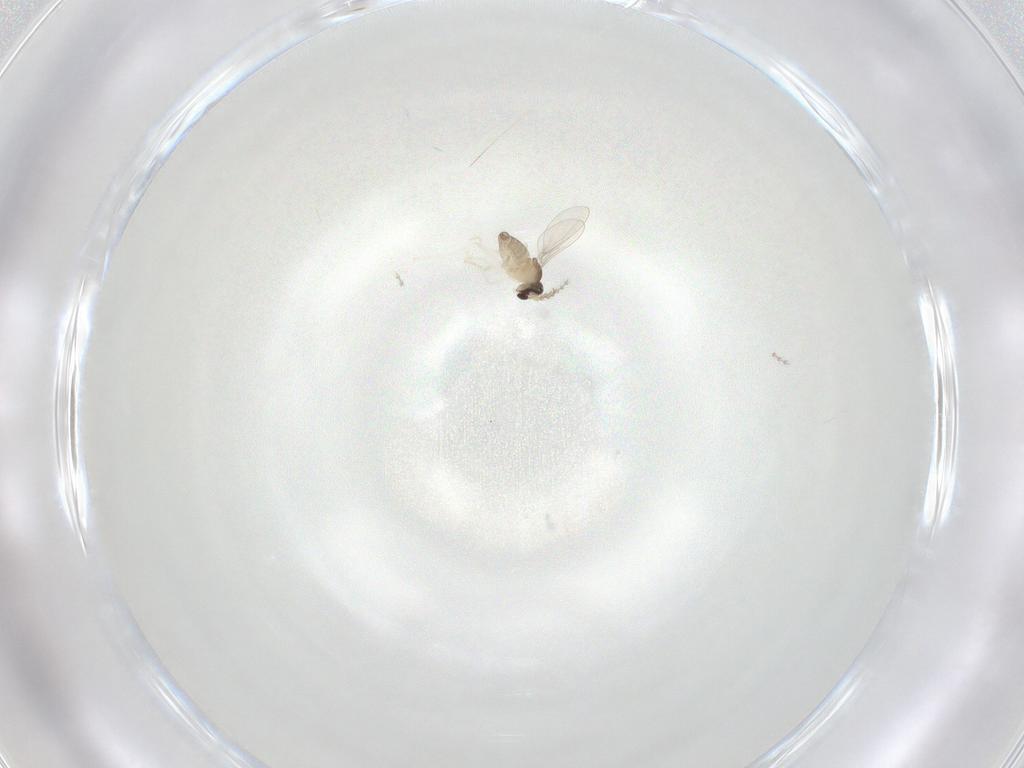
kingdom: Animalia
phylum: Arthropoda
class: Insecta
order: Diptera
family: Cecidomyiidae
